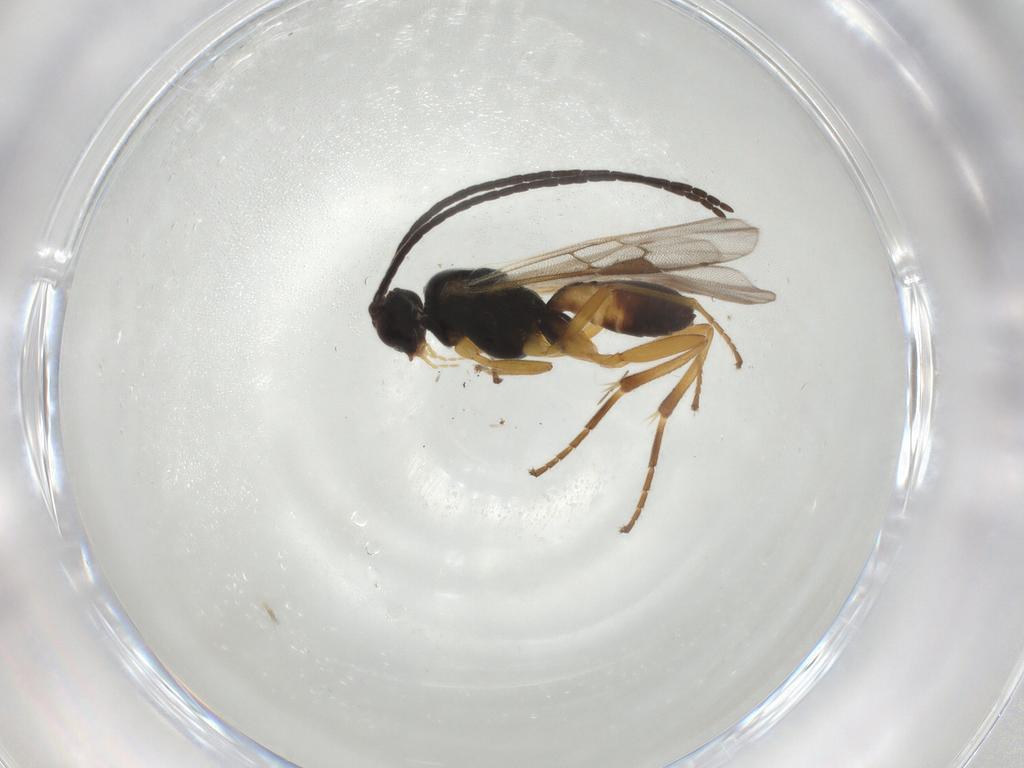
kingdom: Animalia
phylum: Arthropoda
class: Insecta
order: Hymenoptera
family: Braconidae
